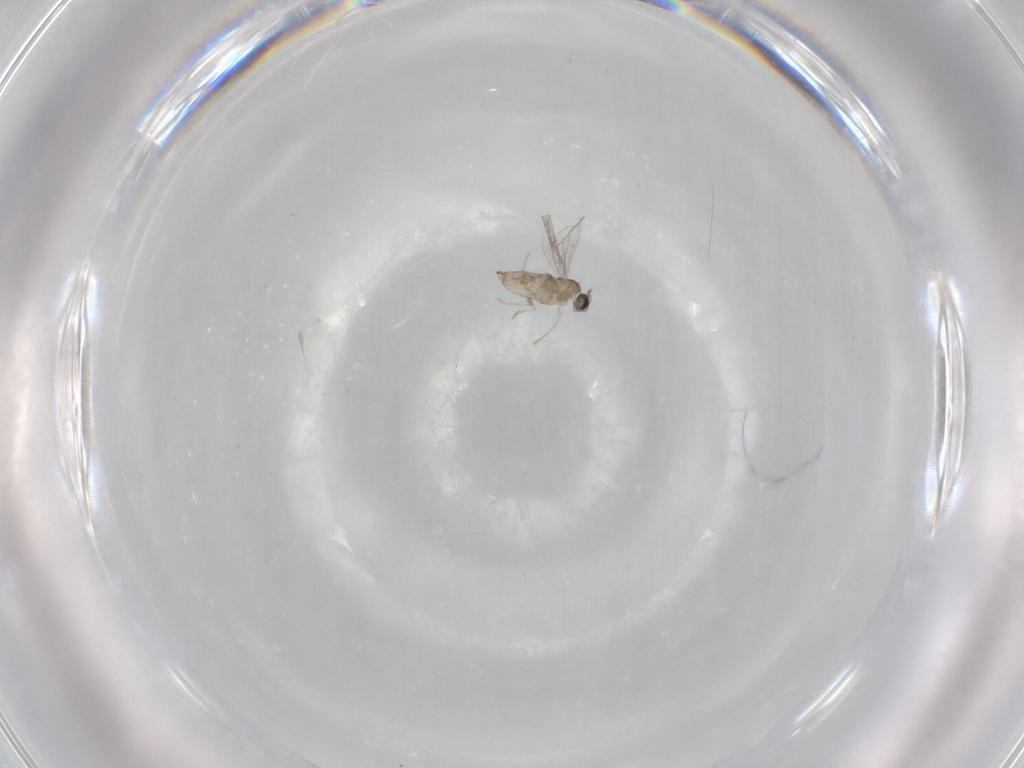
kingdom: Animalia
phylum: Arthropoda
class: Insecta
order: Diptera
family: Cecidomyiidae
